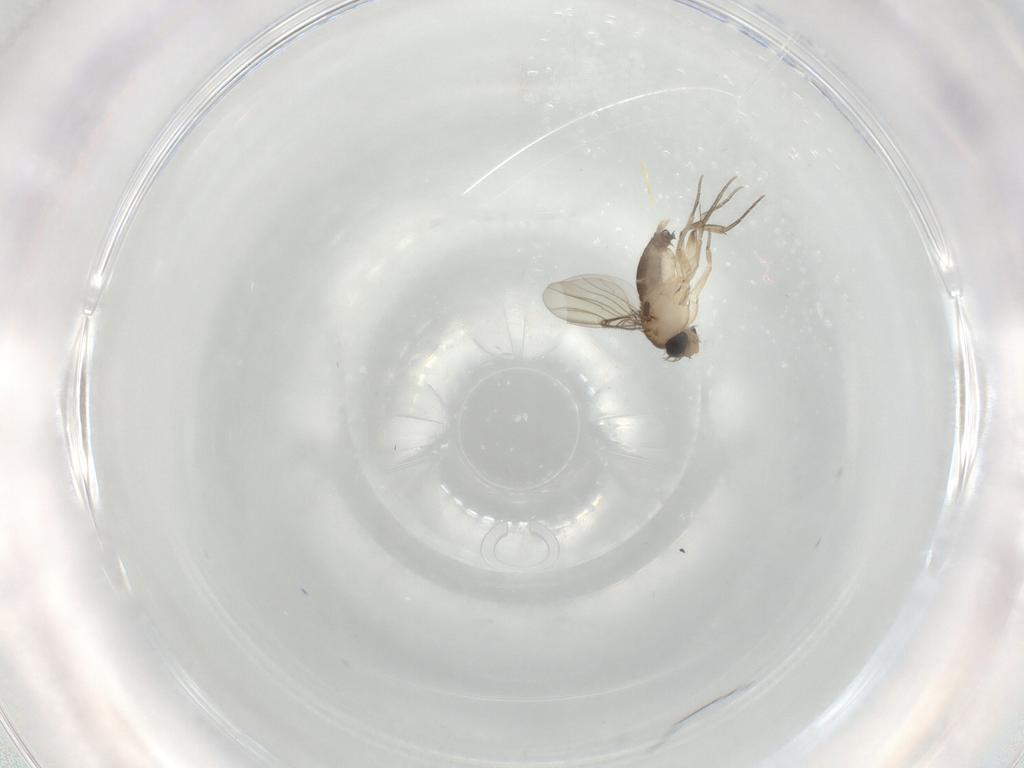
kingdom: Animalia
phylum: Arthropoda
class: Insecta
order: Diptera
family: Phoridae
